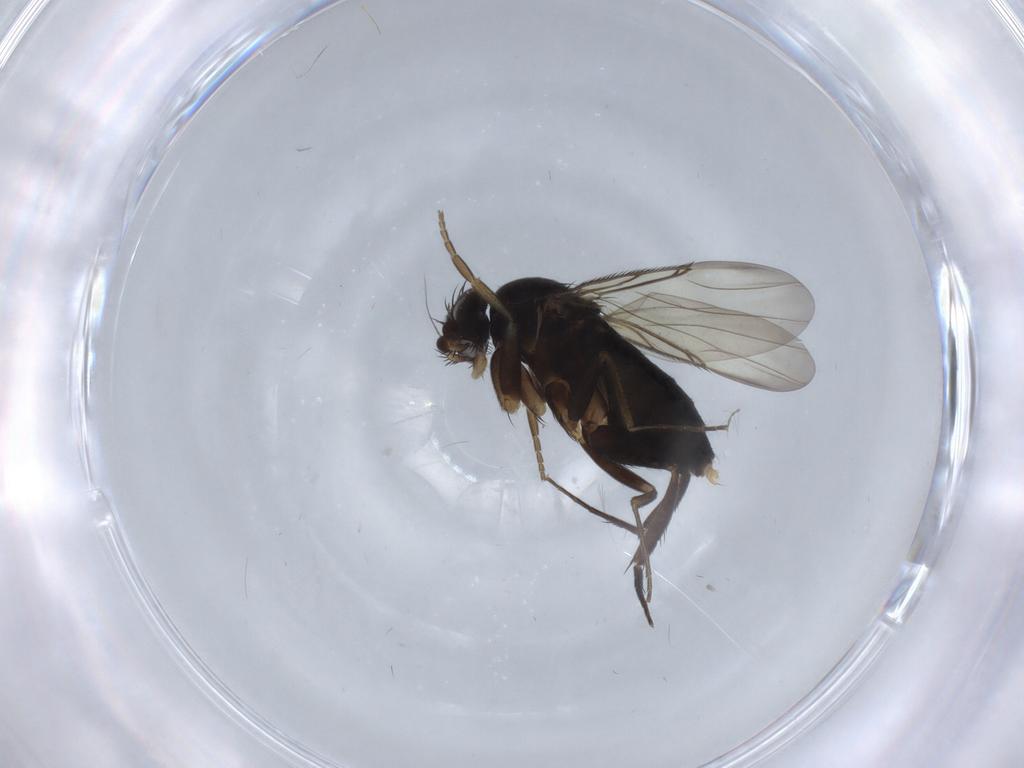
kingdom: Animalia
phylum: Arthropoda
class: Insecta
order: Diptera
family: Phoridae
